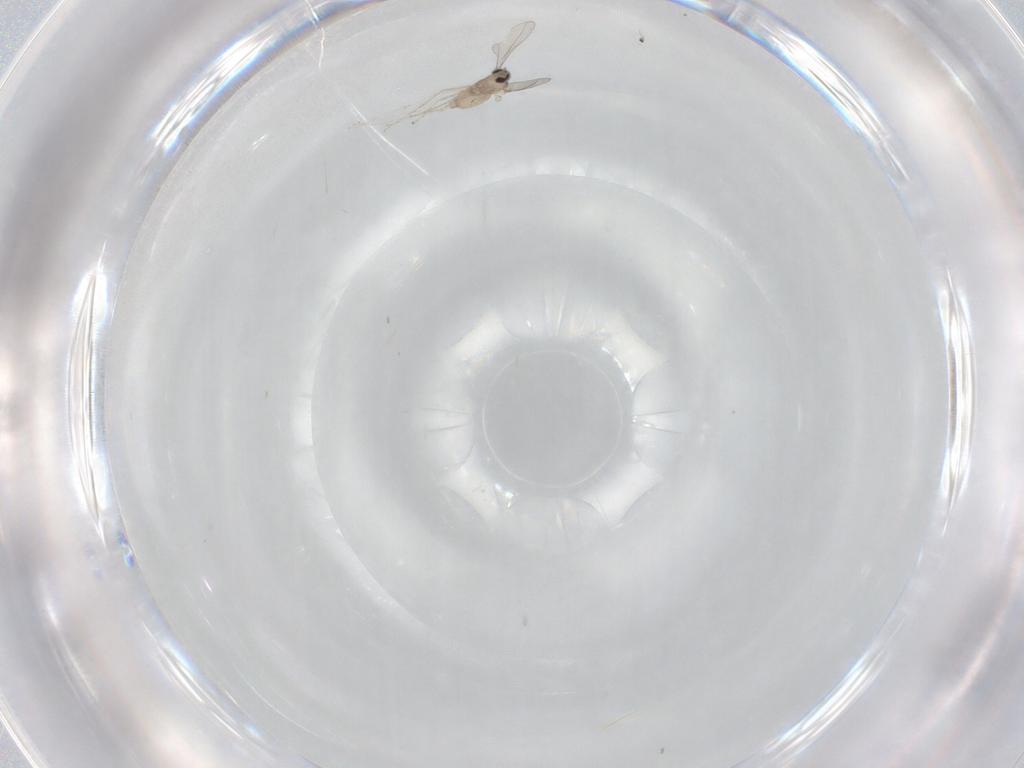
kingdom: Animalia
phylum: Arthropoda
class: Insecta
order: Diptera
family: Cecidomyiidae
